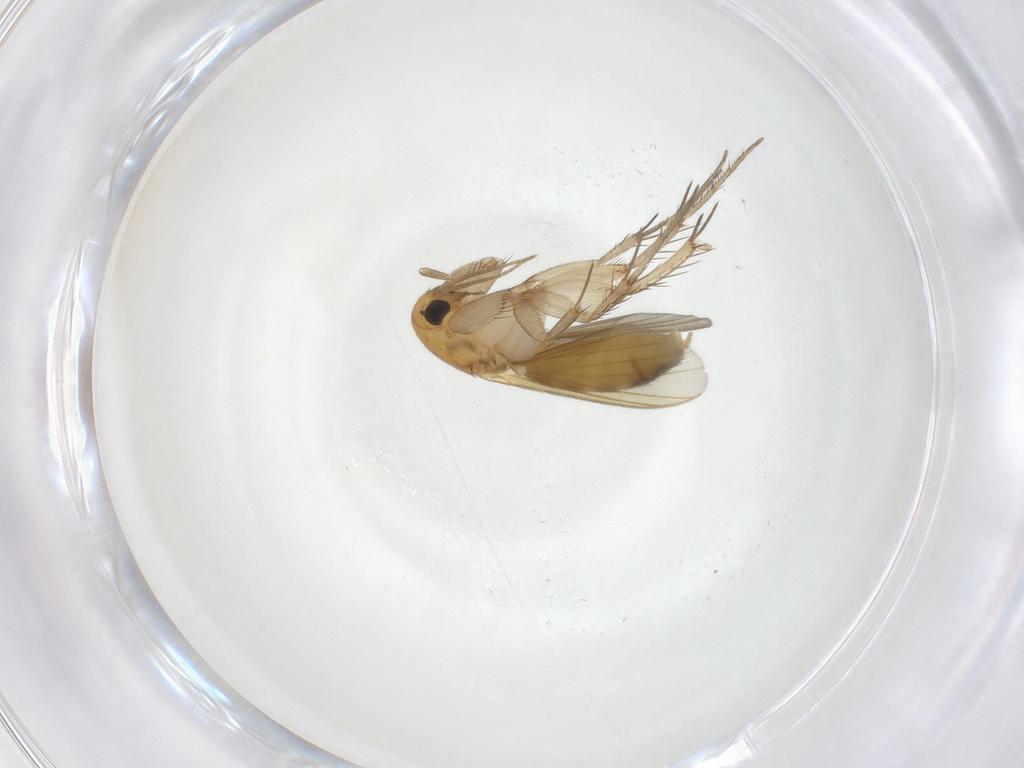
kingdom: Animalia
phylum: Arthropoda
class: Insecta
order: Diptera
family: Mycetophilidae
